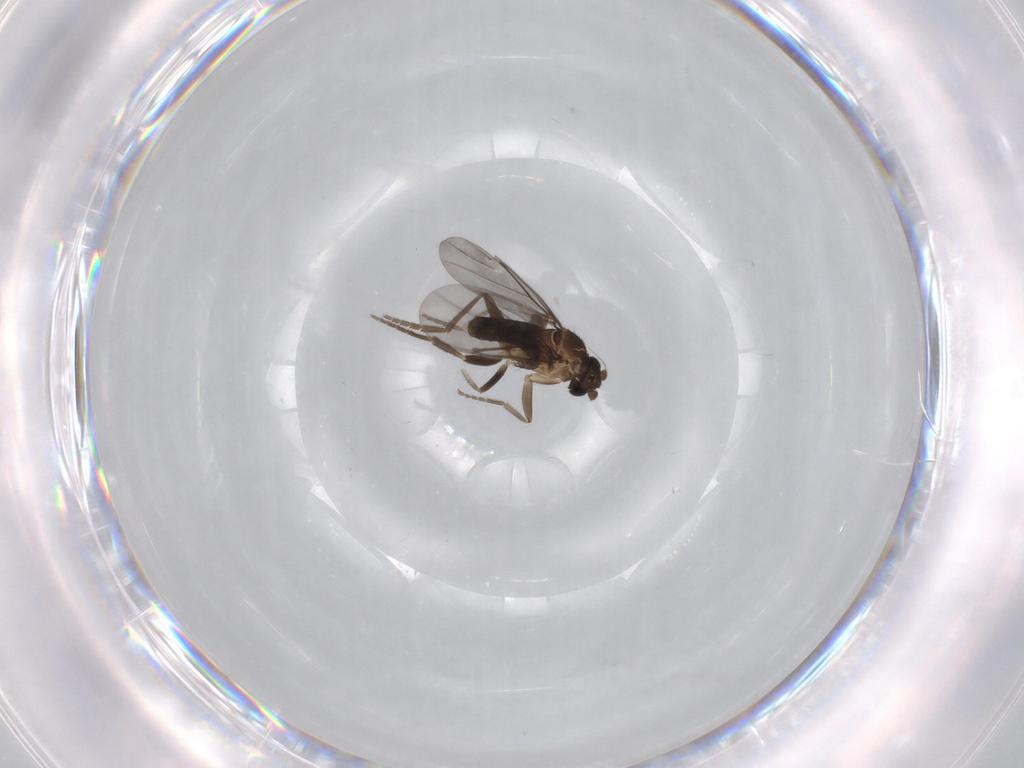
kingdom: Animalia
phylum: Arthropoda
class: Insecta
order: Diptera
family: Phoridae
